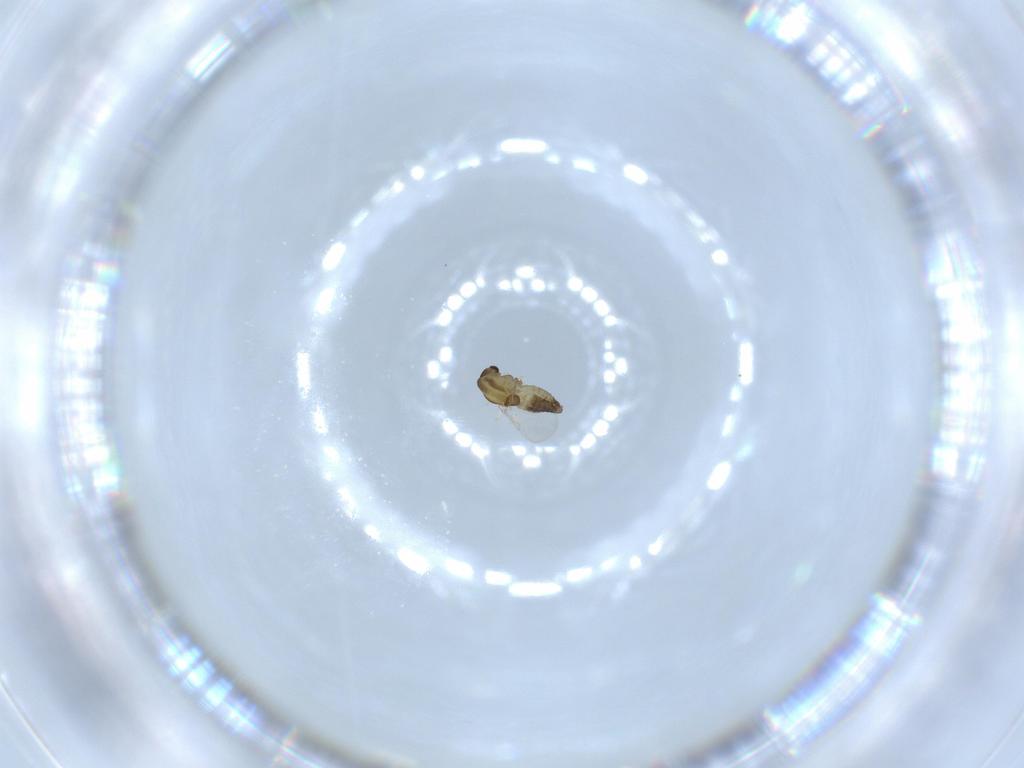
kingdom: Animalia
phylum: Arthropoda
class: Insecta
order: Diptera
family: Chironomidae
